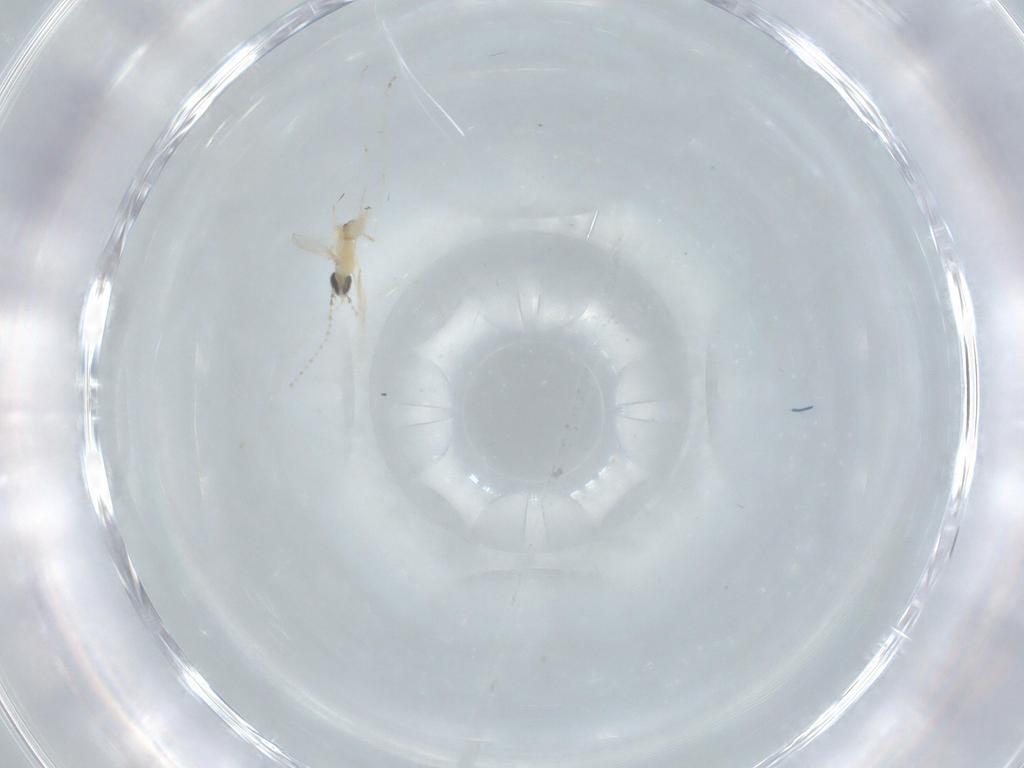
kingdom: Animalia
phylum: Arthropoda
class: Insecta
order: Diptera
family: Cecidomyiidae
